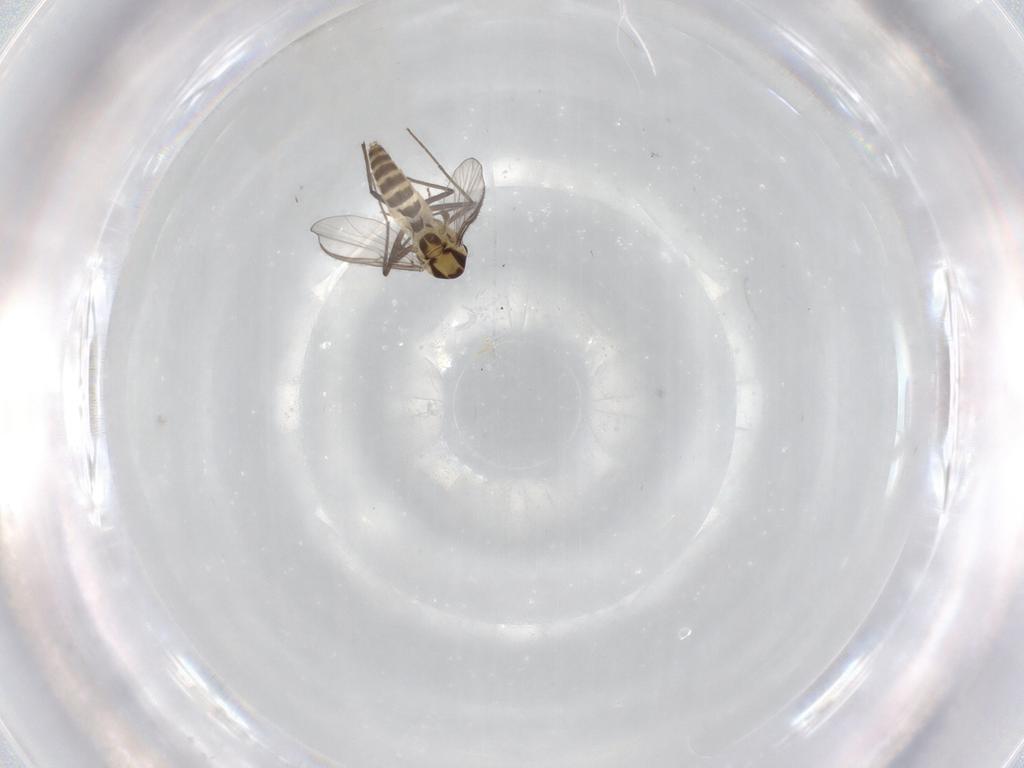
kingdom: Animalia
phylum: Arthropoda
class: Insecta
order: Diptera
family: Chironomidae
